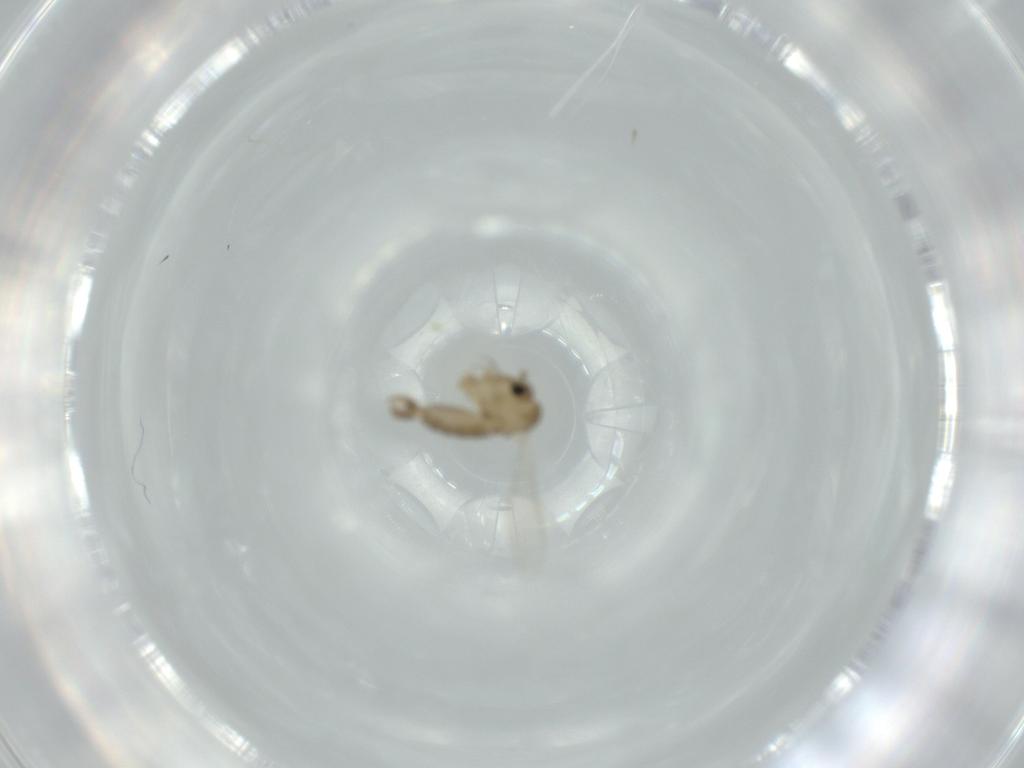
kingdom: Animalia
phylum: Arthropoda
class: Insecta
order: Diptera
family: Psychodidae
